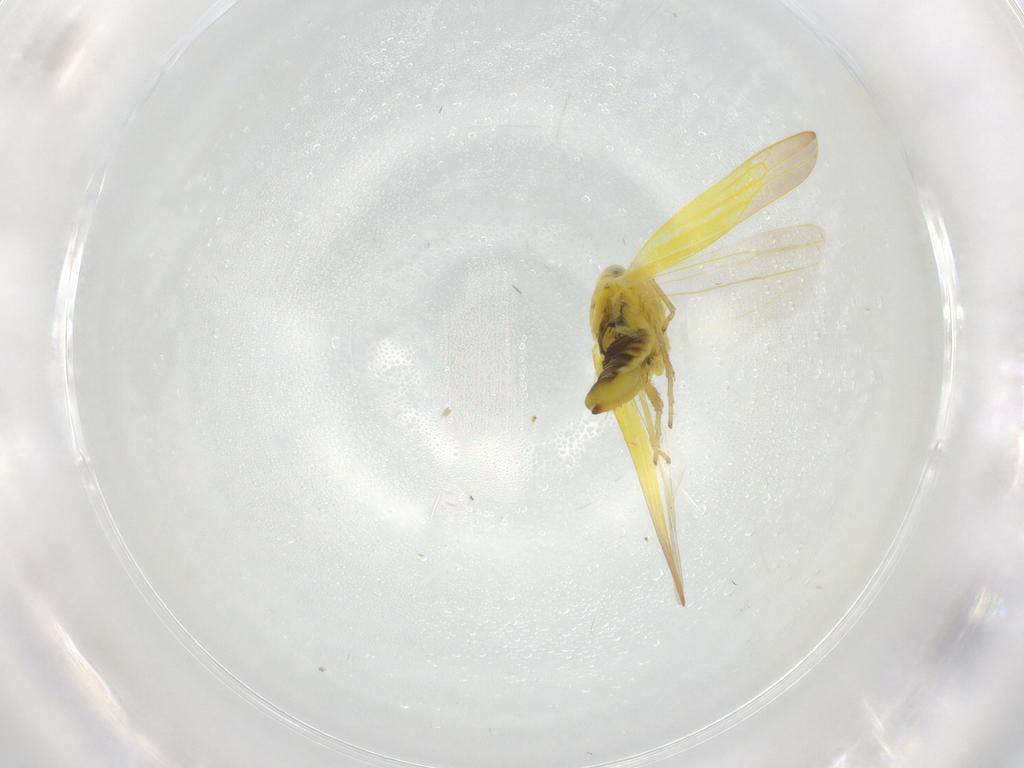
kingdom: Animalia
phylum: Arthropoda
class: Insecta
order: Hemiptera
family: Cicadellidae
